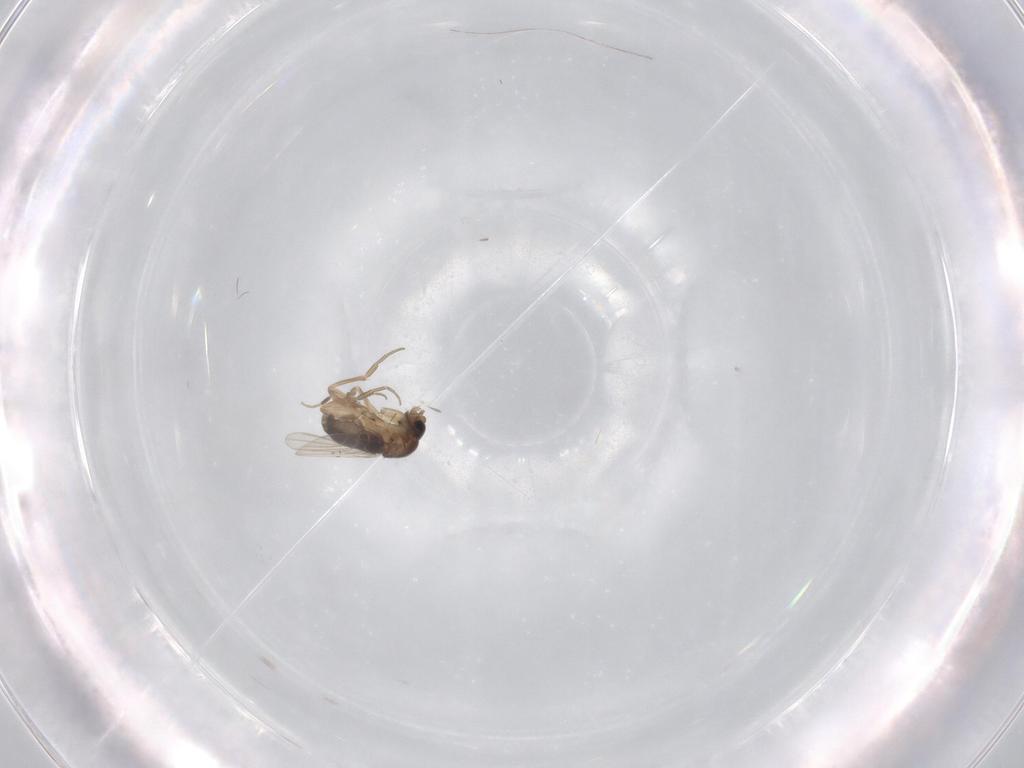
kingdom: Animalia
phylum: Arthropoda
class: Insecta
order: Diptera
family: Phoridae
